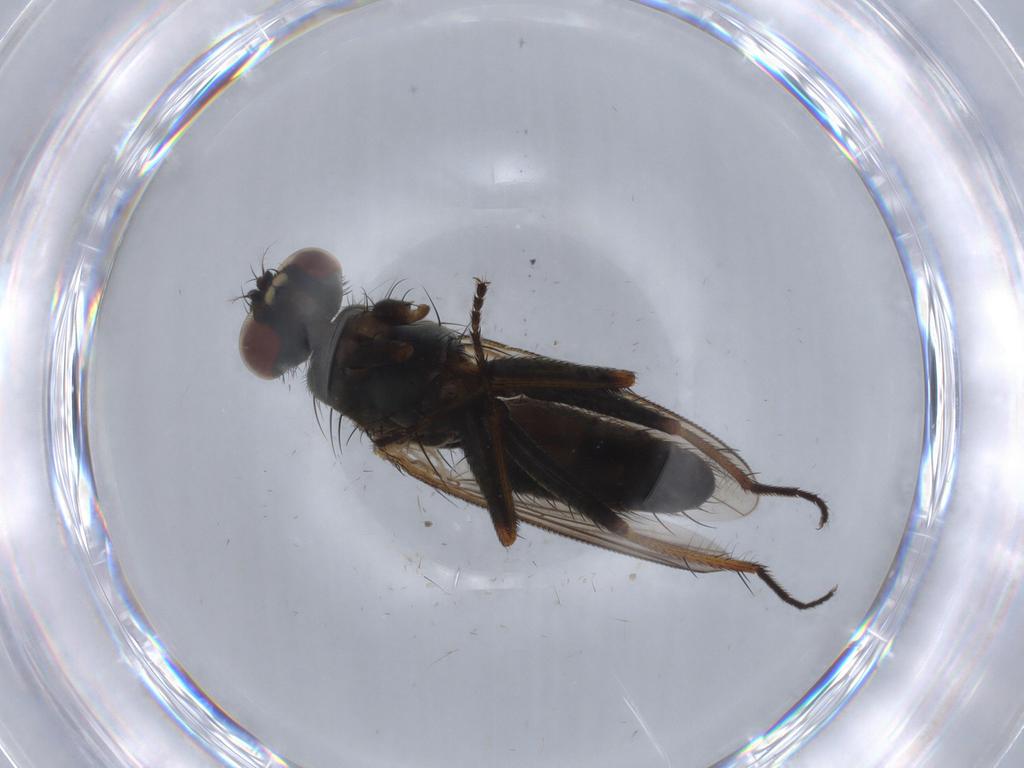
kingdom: Animalia
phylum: Arthropoda
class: Insecta
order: Diptera
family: Muscidae
